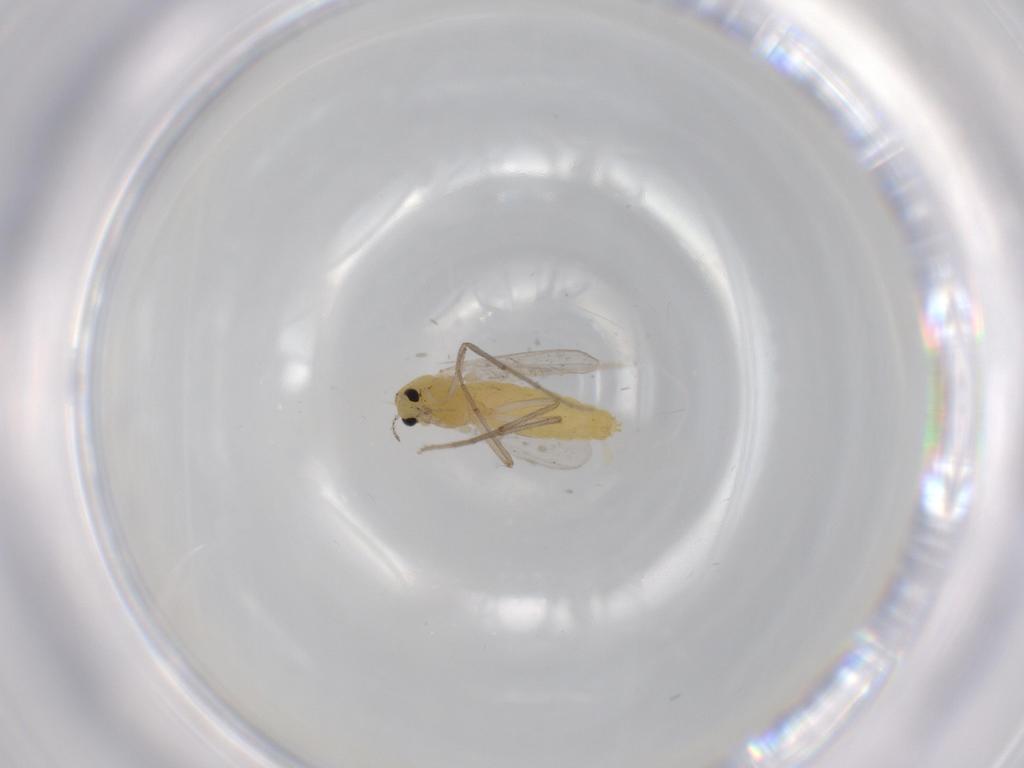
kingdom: Animalia
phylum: Arthropoda
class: Insecta
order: Diptera
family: Chironomidae
